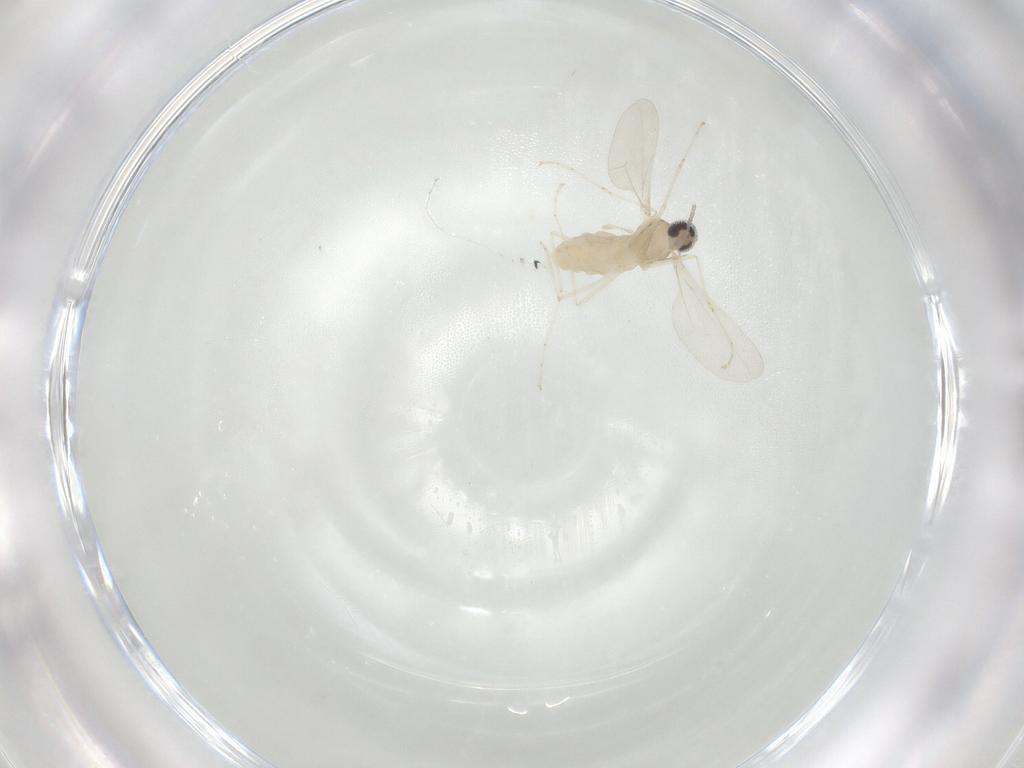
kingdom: Animalia
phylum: Arthropoda
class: Insecta
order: Diptera
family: Cecidomyiidae
